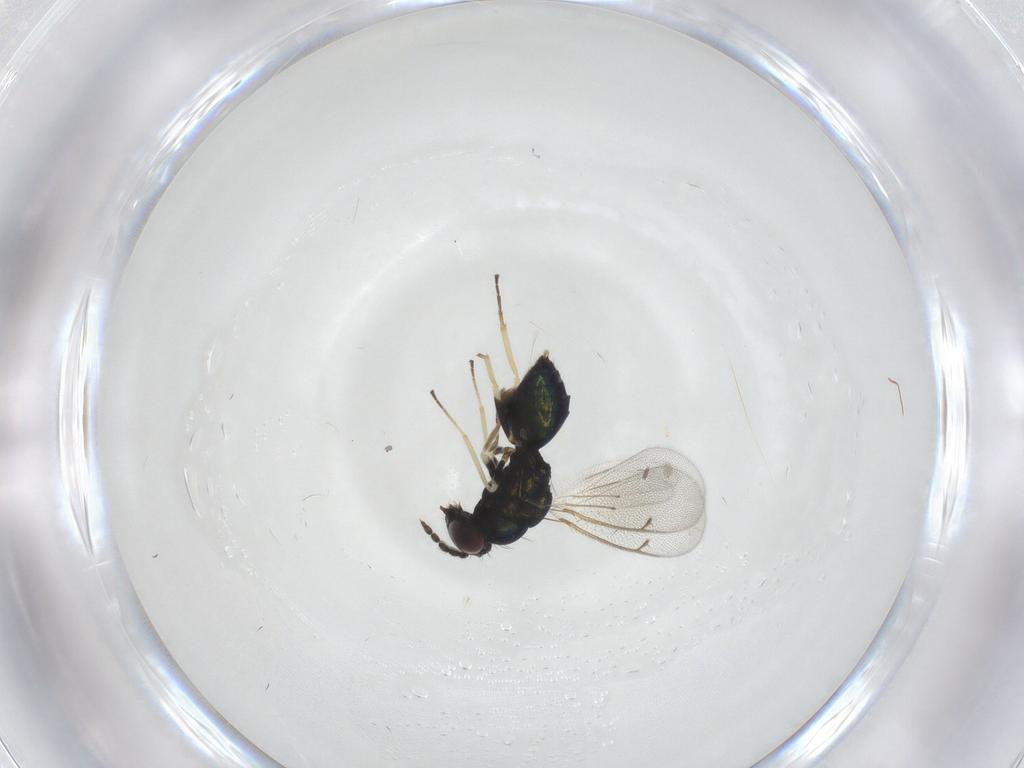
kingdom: Animalia
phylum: Arthropoda
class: Insecta
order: Hymenoptera
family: Eulophidae
